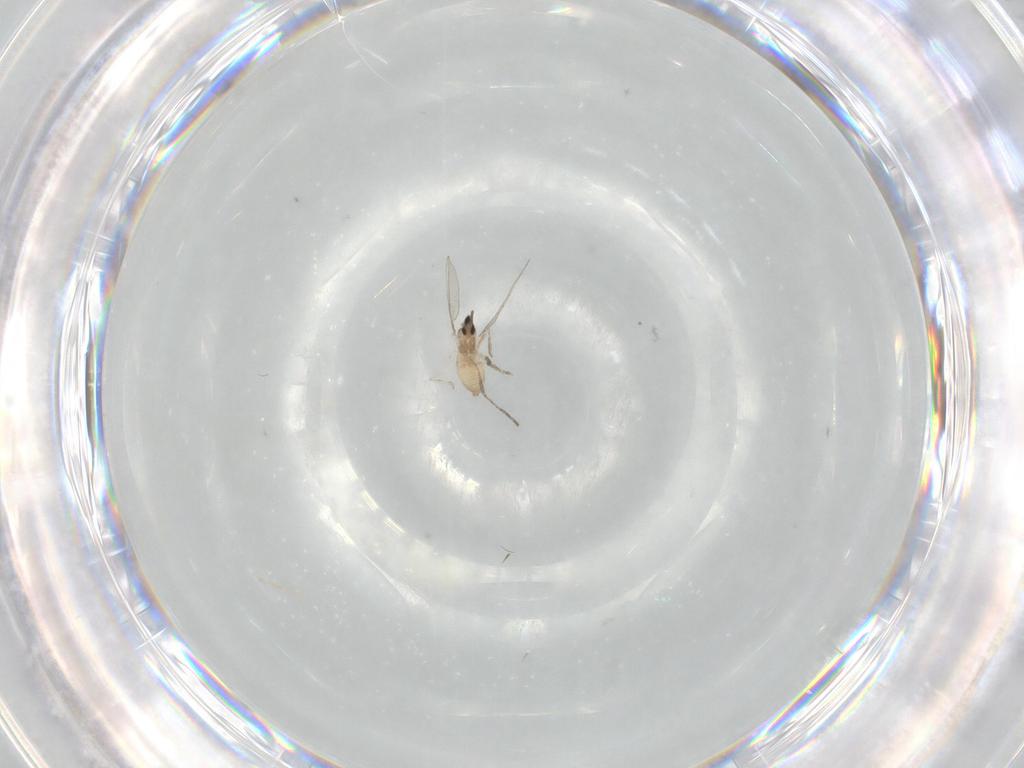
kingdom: Animalia
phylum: Arthropoda
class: Insecta
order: Diptera
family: Cecidomyiidae
